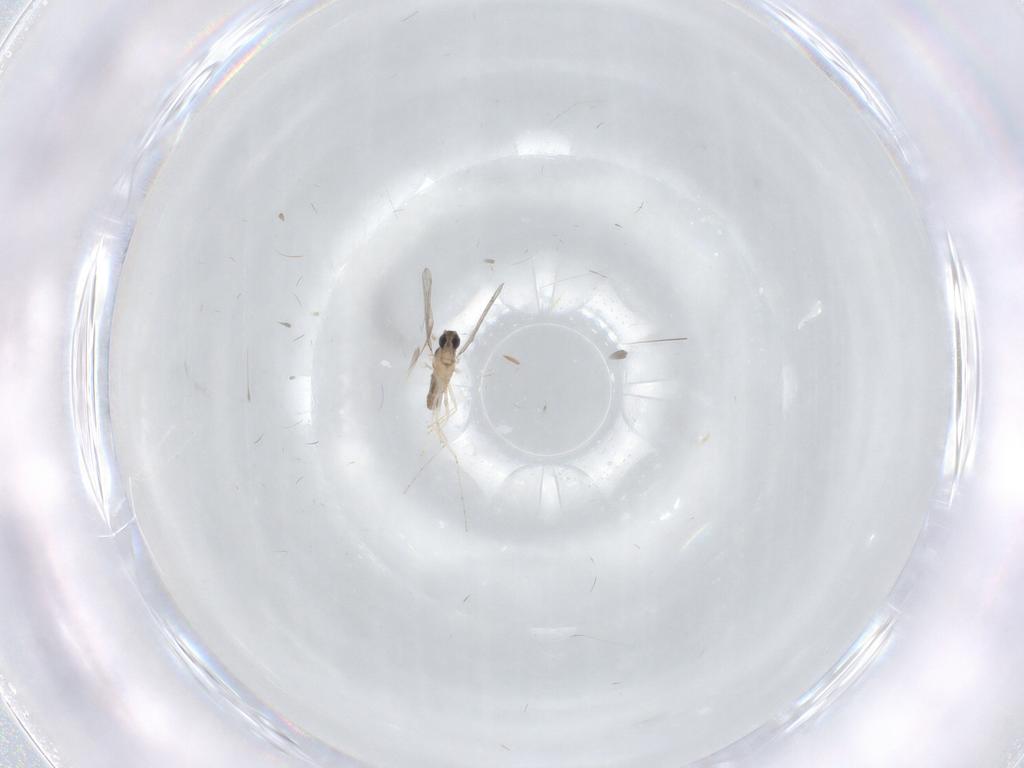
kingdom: Animalia
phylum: Arthropoda
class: Insecta
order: Diptera
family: Cecidomyiidae
